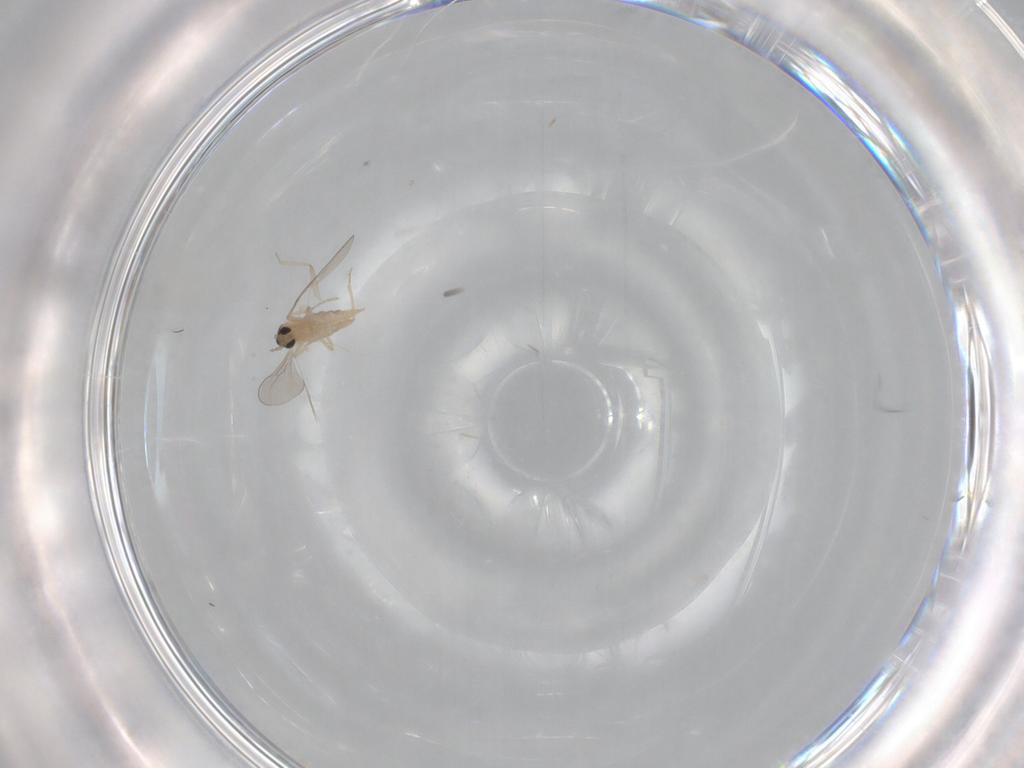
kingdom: Animalia
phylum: Arthropoda
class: Insecta
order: Diptera
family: Cecidomyiidae
